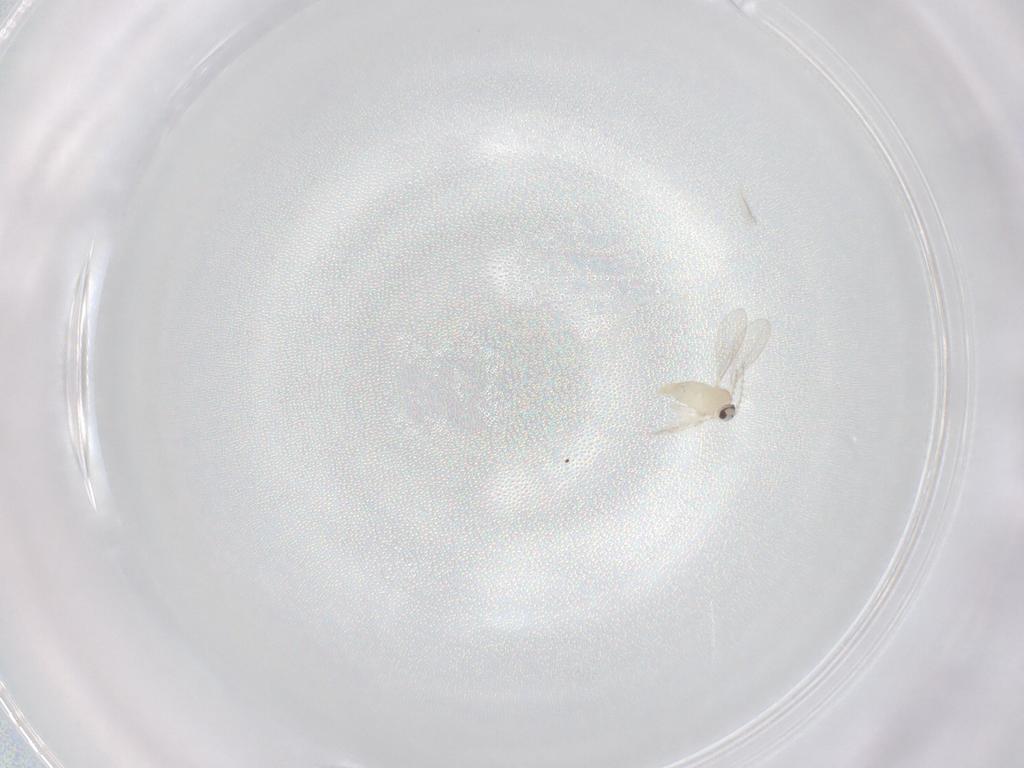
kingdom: Animalia
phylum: Arthropoda
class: Insecta
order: Diptera
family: Cecidomyiidae
